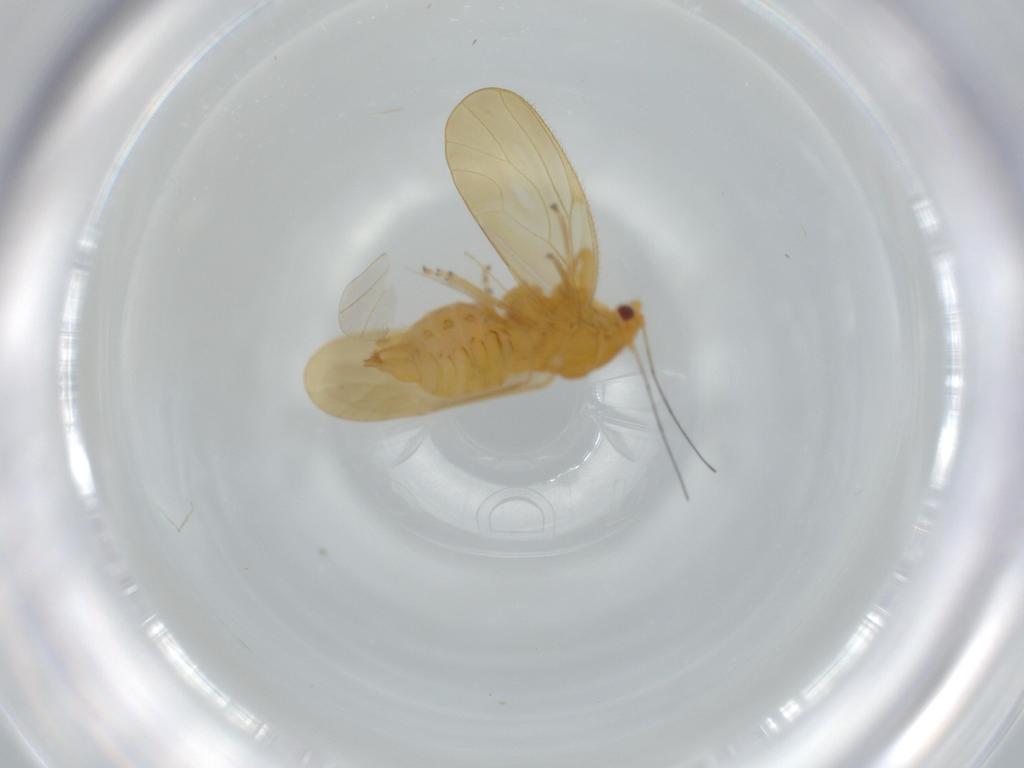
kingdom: Animalia
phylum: Arthropoda
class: Insecta
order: Hemiptera
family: Psyllidae
